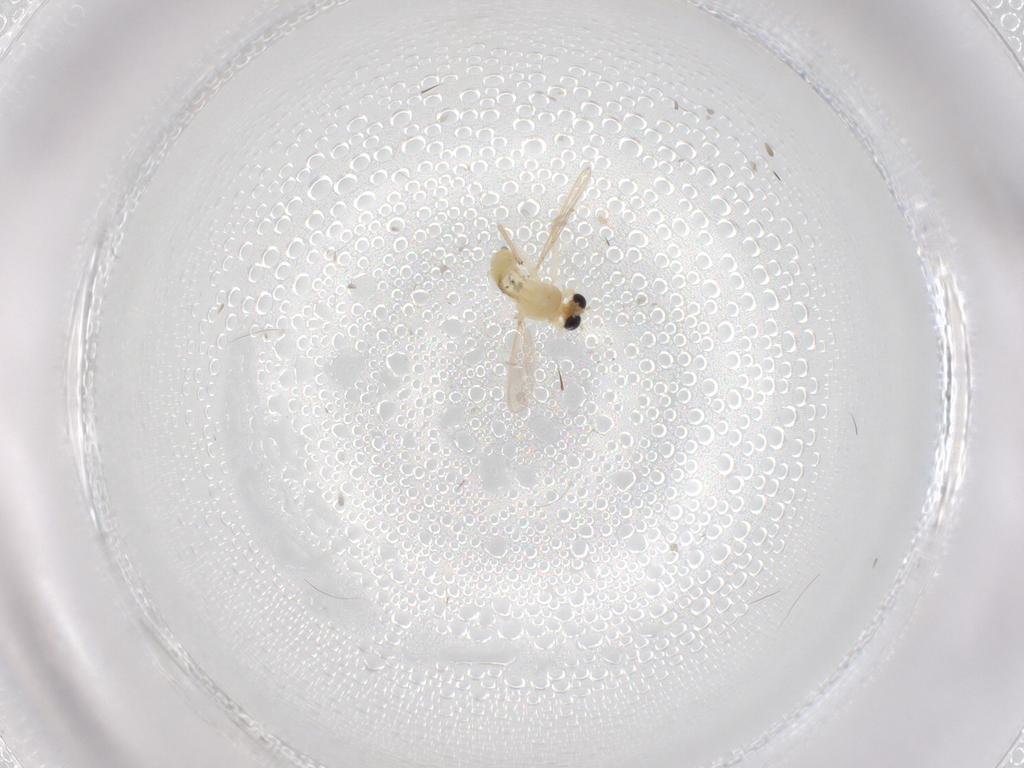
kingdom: Animalia
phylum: Arthropoda
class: Insecta
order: Diptera
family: Chironomidae
